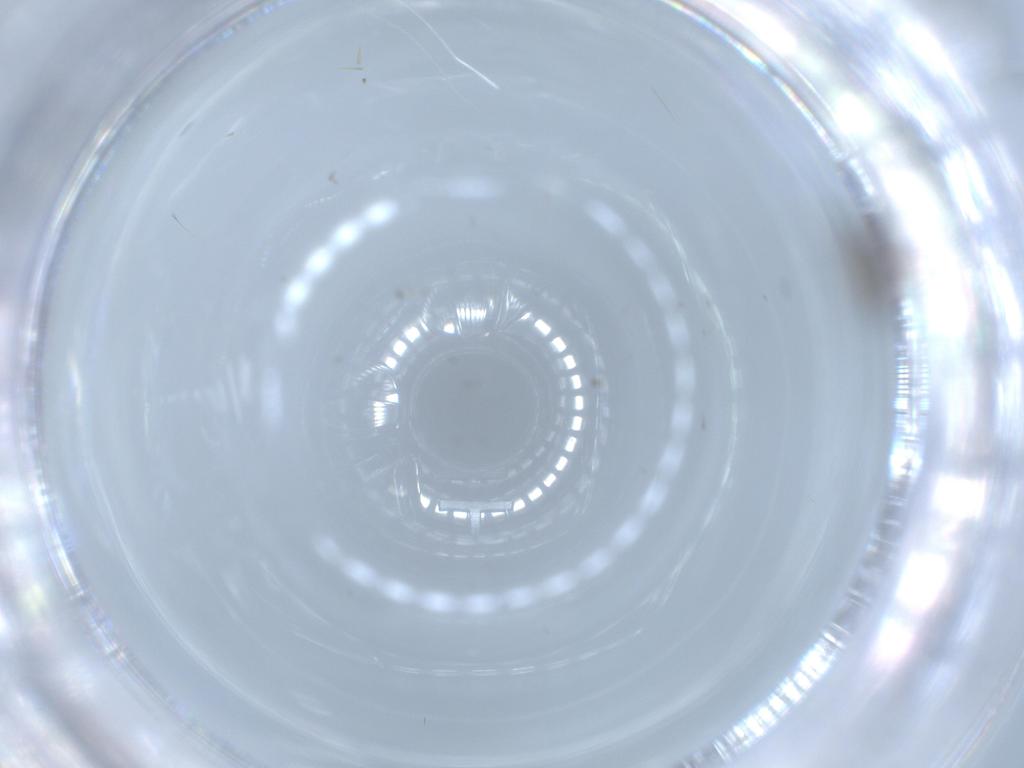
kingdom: Animalia
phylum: Arthropoda
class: Insecta
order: Diptera
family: Sciaridae
